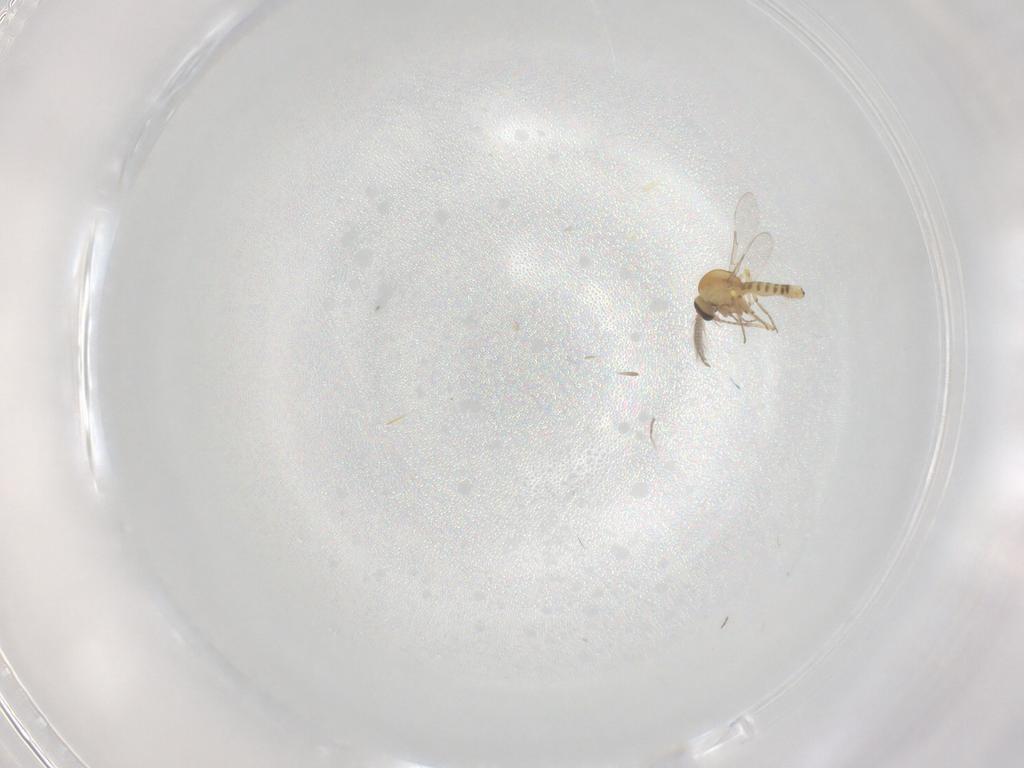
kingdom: Animalia
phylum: Arthropoda
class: Insecta
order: Diptera
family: Ceratopogonidae
